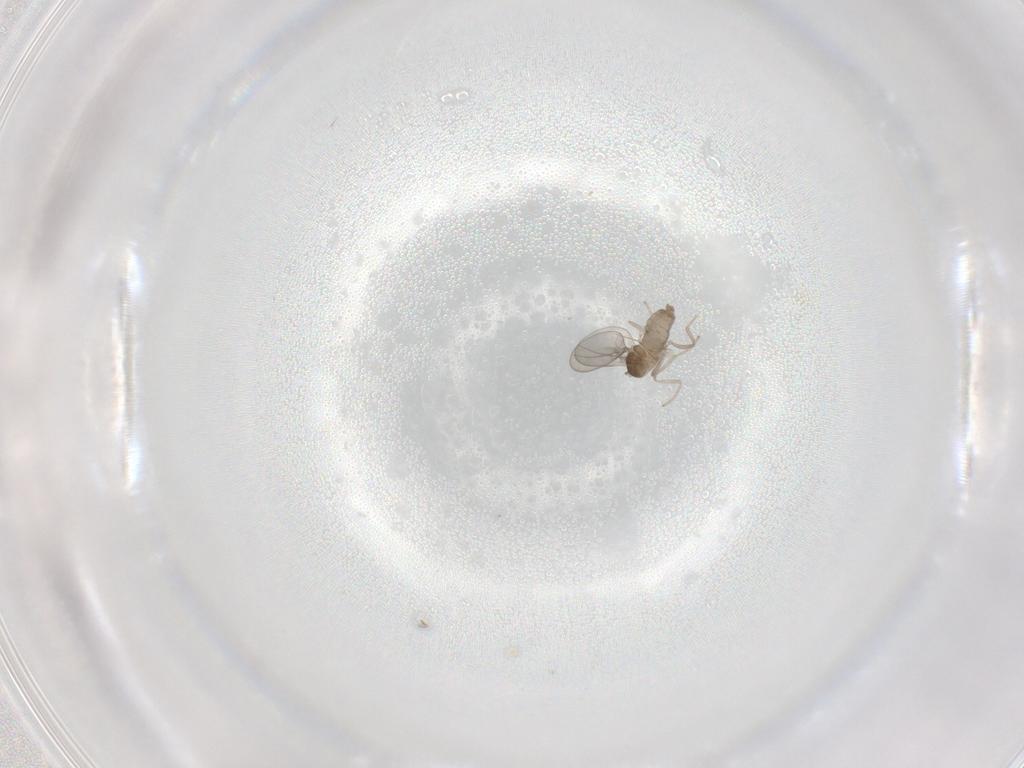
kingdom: Animalia
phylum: Arthropoda
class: Insecta
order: Diptera
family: Cecidomyiidae
